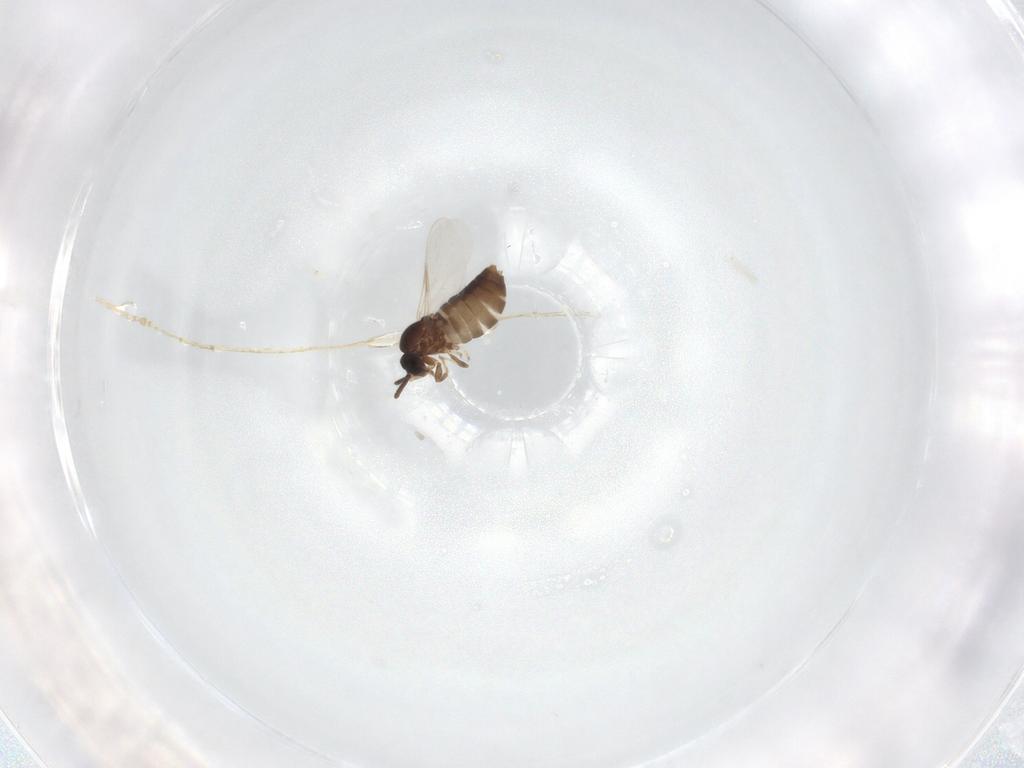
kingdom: Animalia
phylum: Arthropoda
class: Insecta
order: Diptera
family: Scatopsidae
